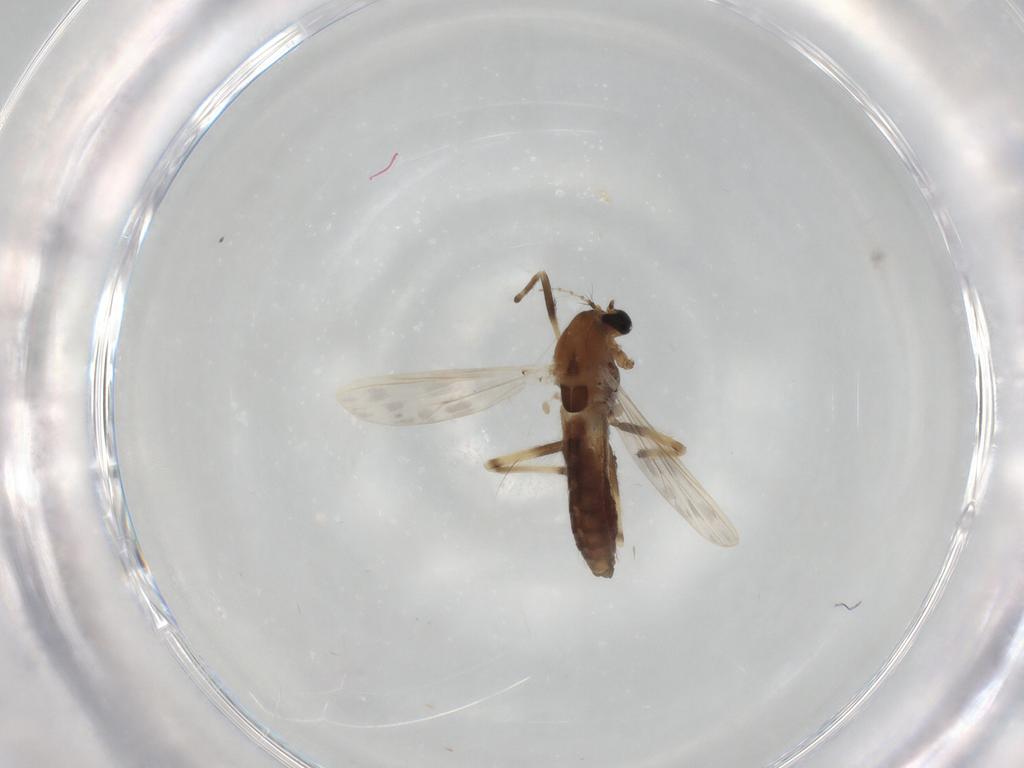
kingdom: Animalia
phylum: Arthropoda
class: Insecta
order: Diptera
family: Chironomidae
